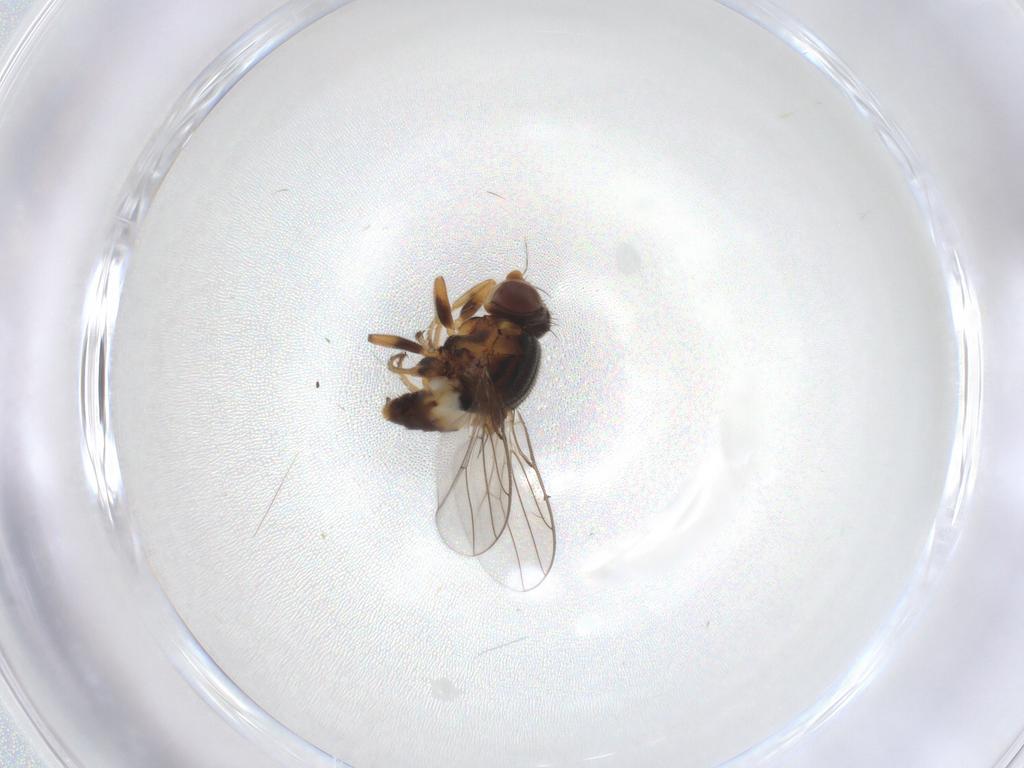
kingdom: Animalia
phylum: Arthropoda
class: Insecta
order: Diptera
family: Chloropidae
